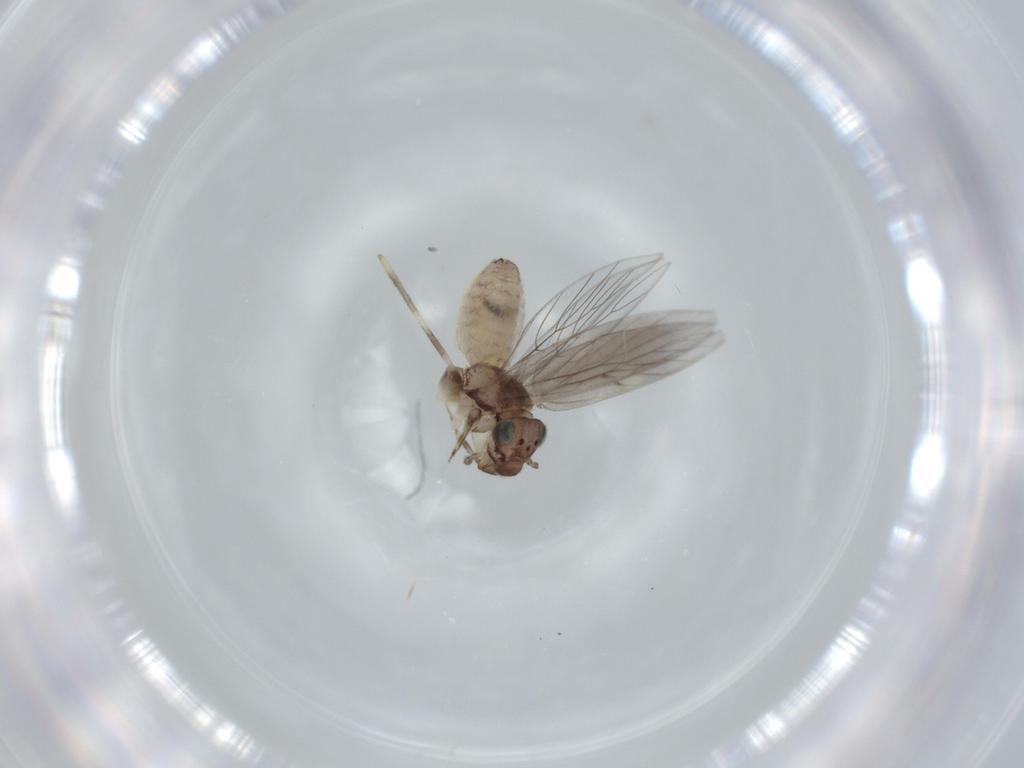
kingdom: Animalia
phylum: Arthropoda
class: Insecta
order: Psocodea
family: Lepidopsocidae
